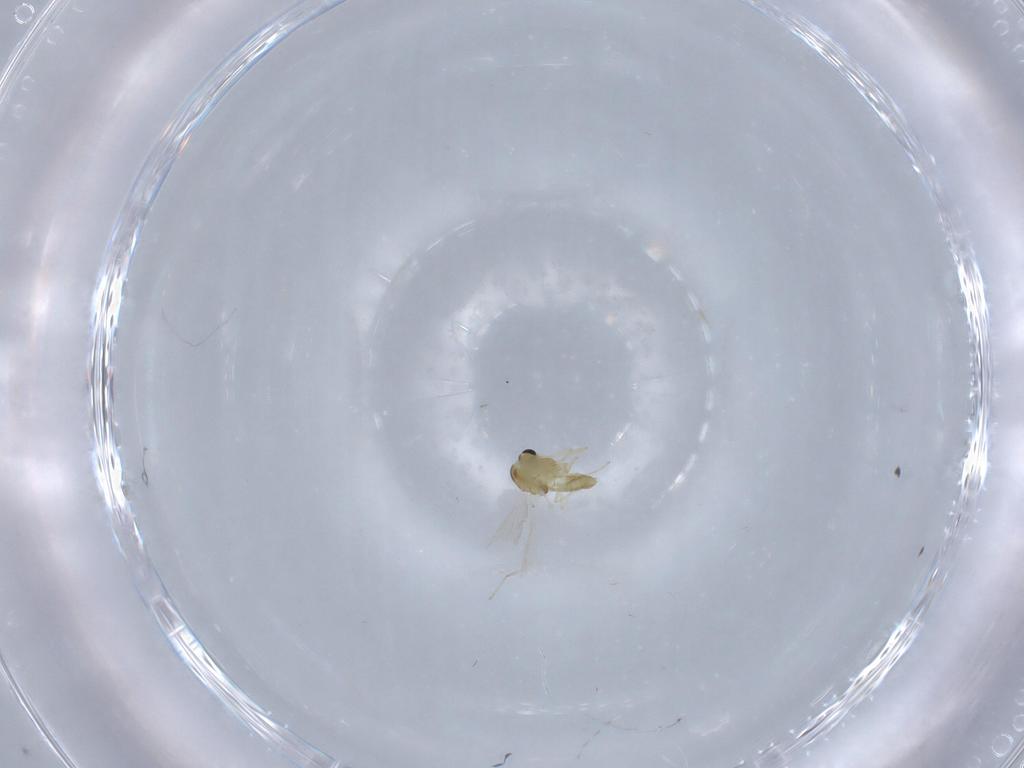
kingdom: Animalia
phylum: Arthropoda
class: Insecta
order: Diptera
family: Chironomidae
